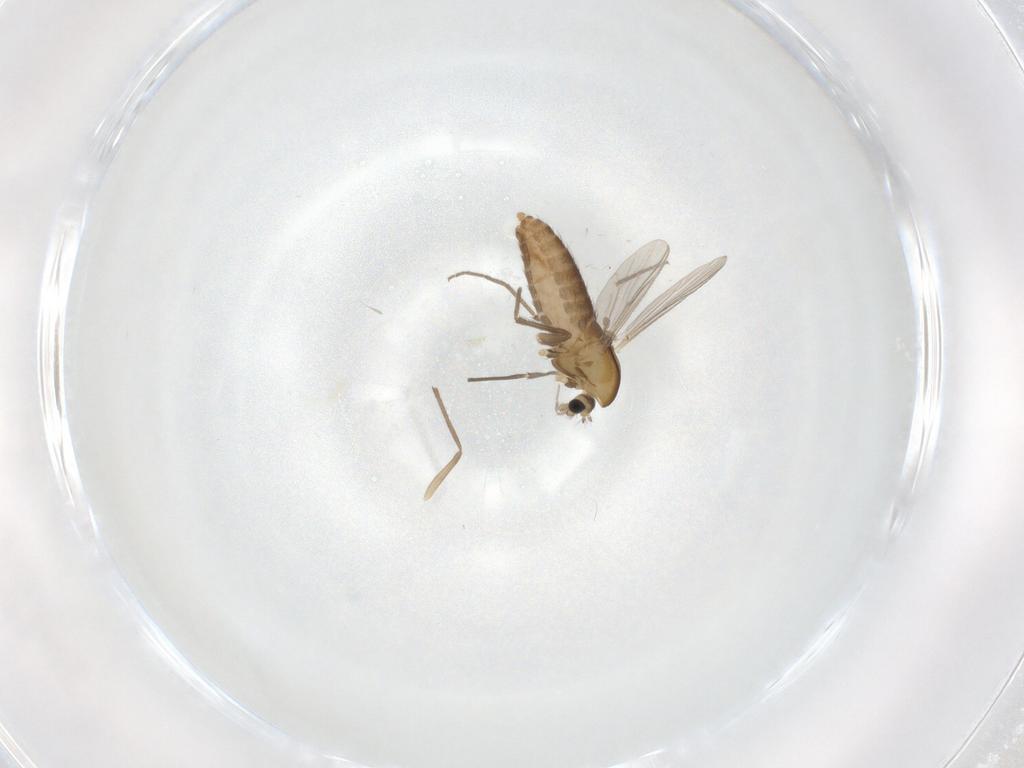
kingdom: Animalia
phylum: Arthropoda
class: Insecta
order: Diptera
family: Chironomidae
